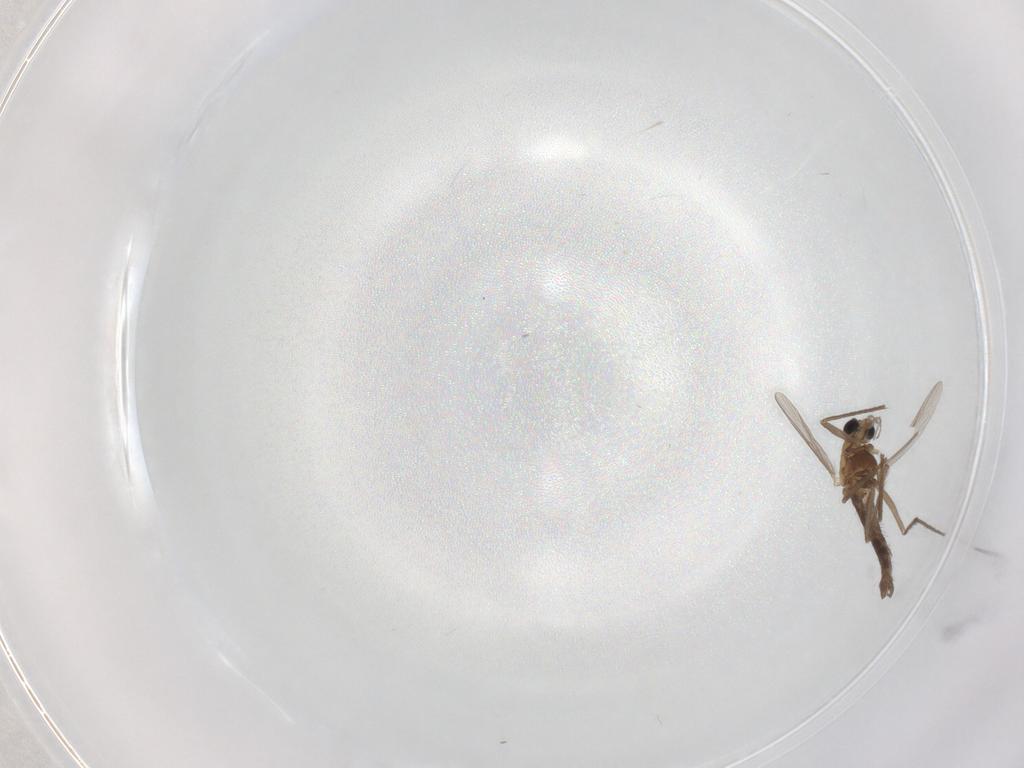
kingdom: Animalia
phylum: Arthropoda
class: Insecta
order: Diptera
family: Chironomidae
